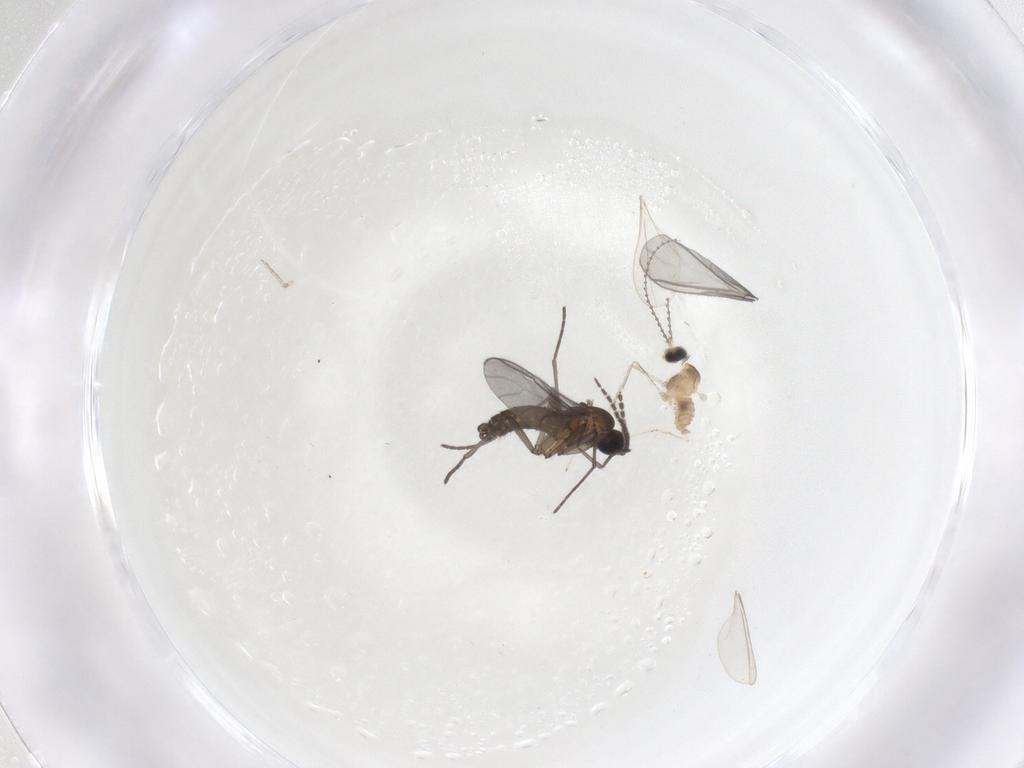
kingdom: Animalia
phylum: Arthropoda
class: Insecta
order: Diptera
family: Cecidomyiidae
